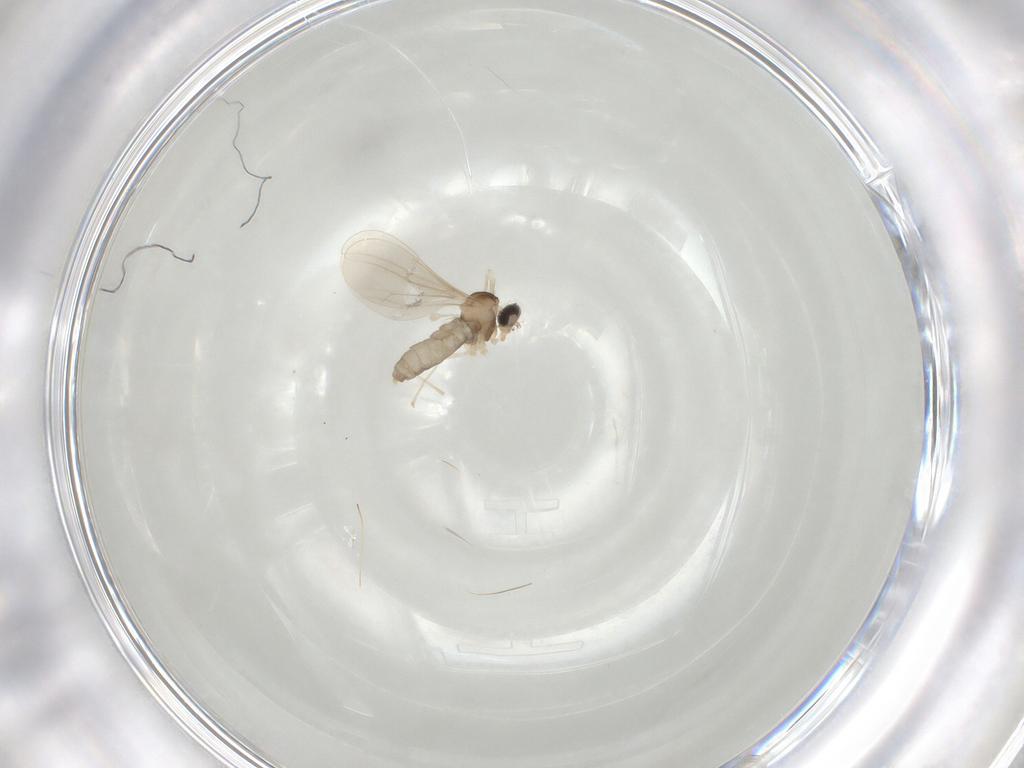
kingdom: Animalia
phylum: Arthropoda
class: Insecta
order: Diptera
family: Cecidomyiidae
